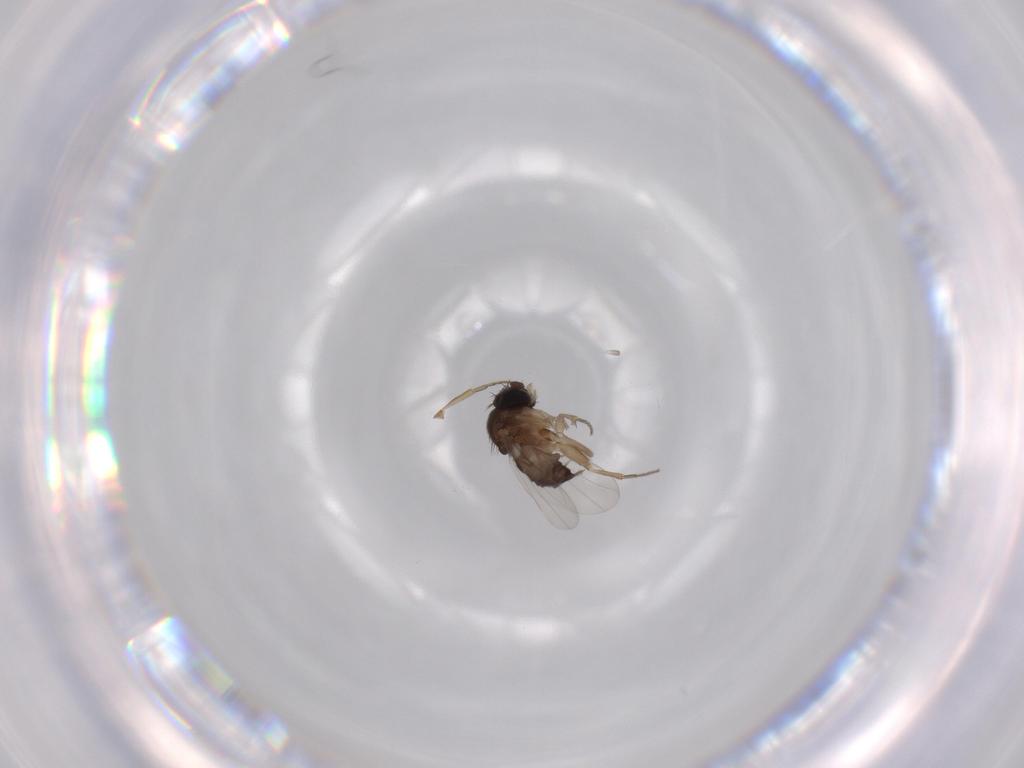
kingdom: Animalia
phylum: Arthropoda
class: Insecta
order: Diptera
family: Phoridae
